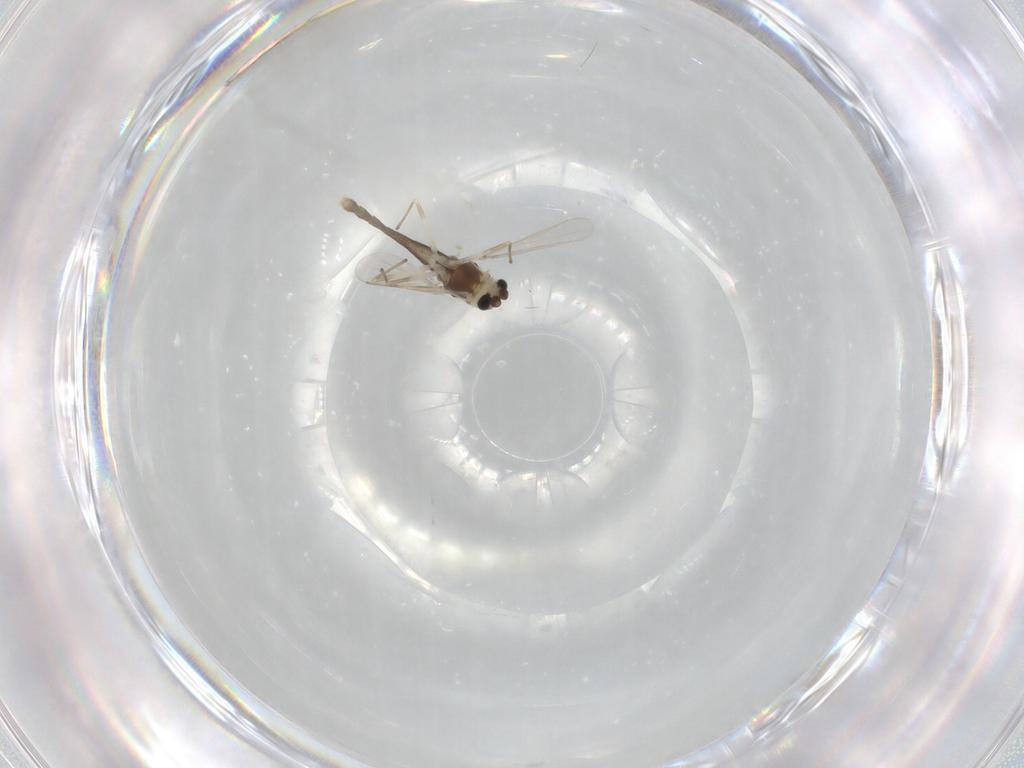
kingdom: Animalia
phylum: Arthropoda
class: Insecta
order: Diptera
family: Chironomidae
